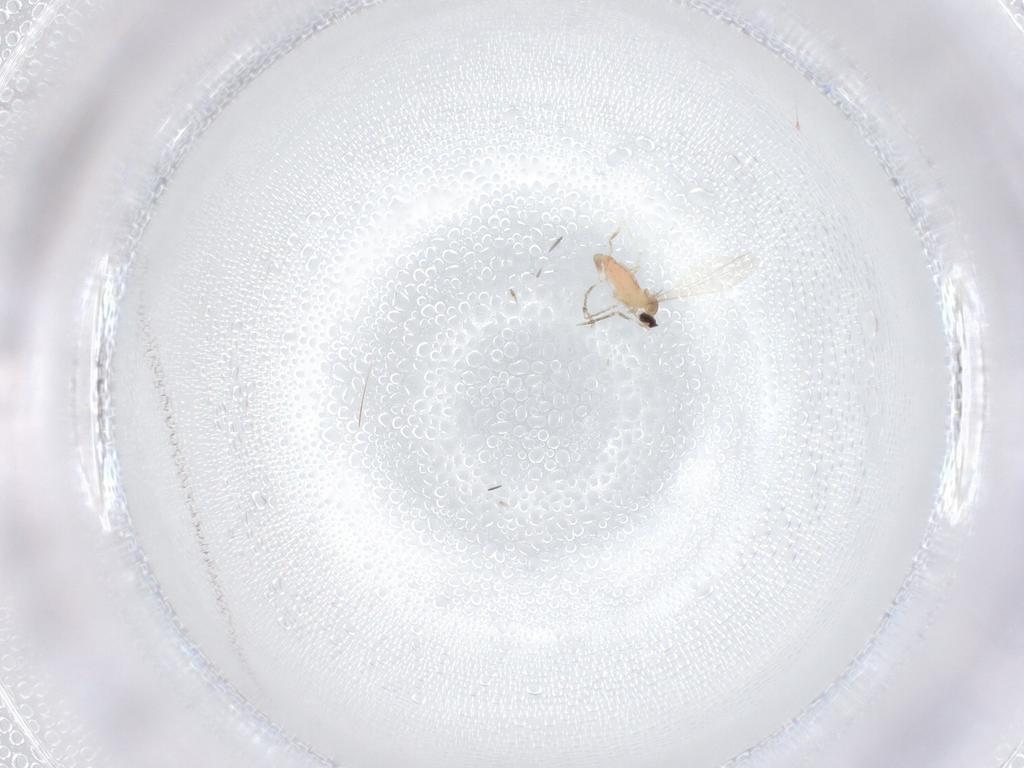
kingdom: Animalia
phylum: Arthropoda
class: Insecta
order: Diptera
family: Cecidomyiidae
